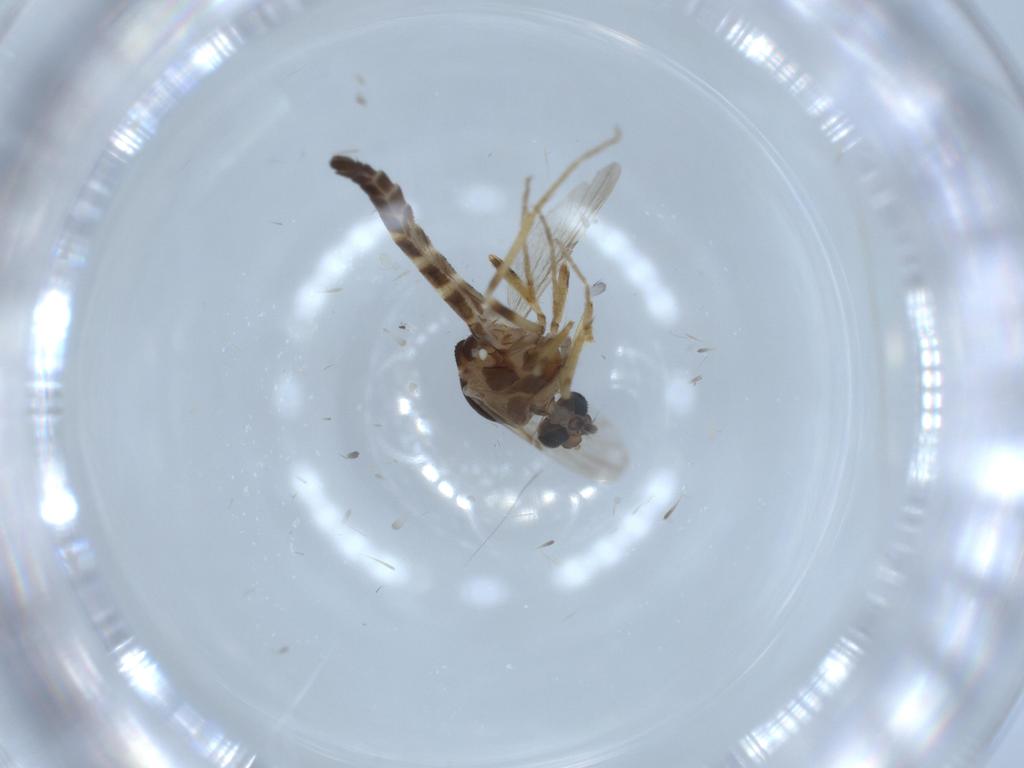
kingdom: Animalia
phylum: Arthropoda
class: Insecta
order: Diptera
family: Ceratopogonidae
